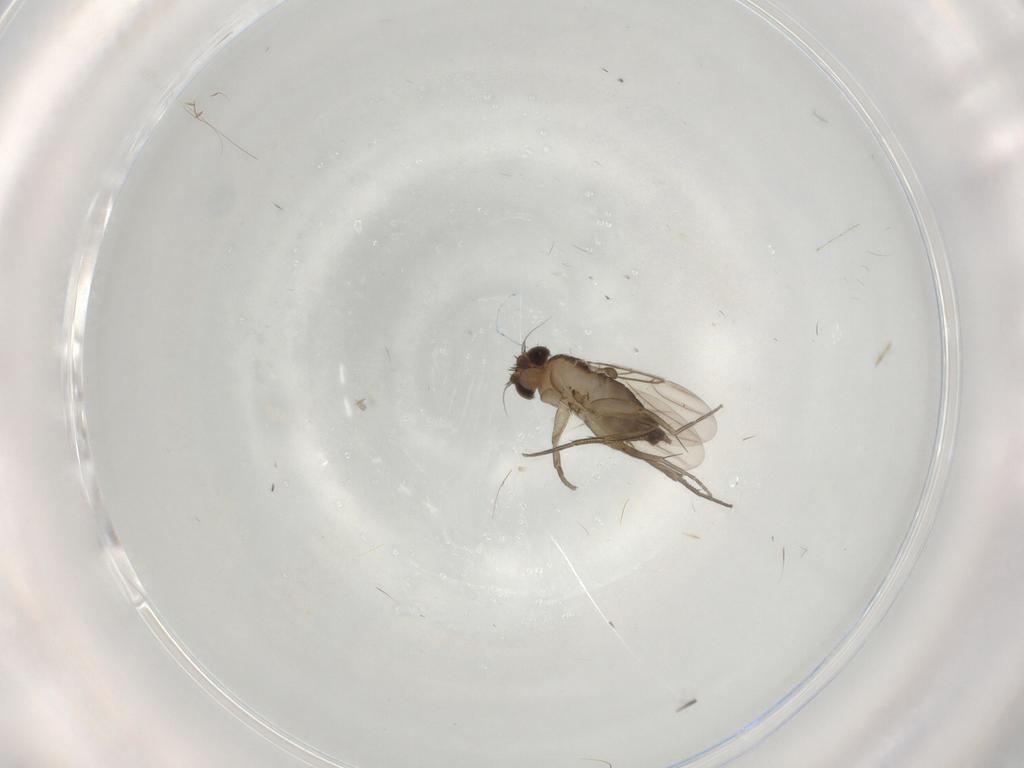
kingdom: Animalia
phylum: Arthropoda
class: Insecta
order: Diptera
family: Phoridae
